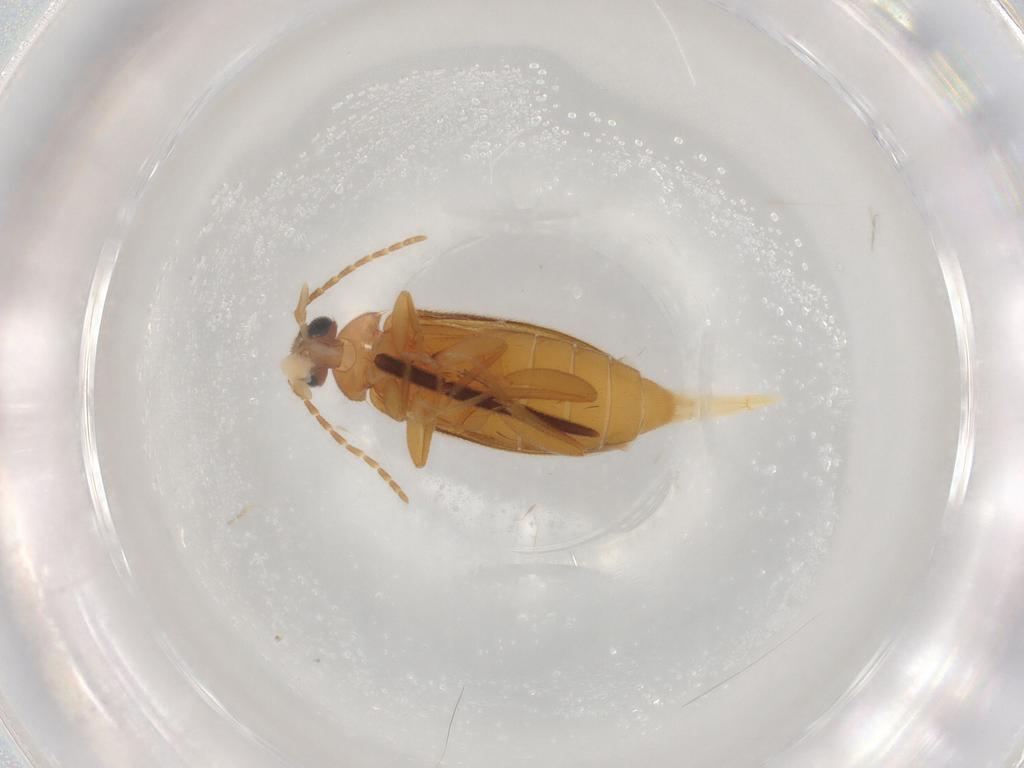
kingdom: Animalia
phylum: Arthropoda
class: Insecta
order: Coleoptera
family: Scraptiidae
